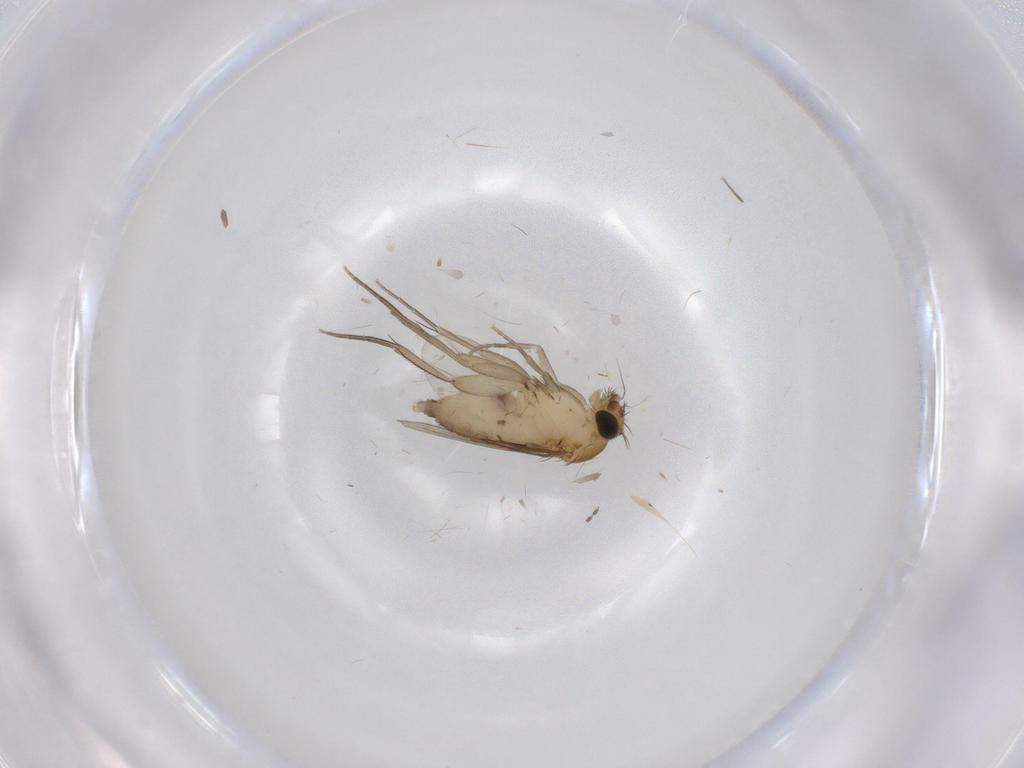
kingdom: Animalia
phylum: Arthropoda
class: Insecta
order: Diptera
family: Phoridae
